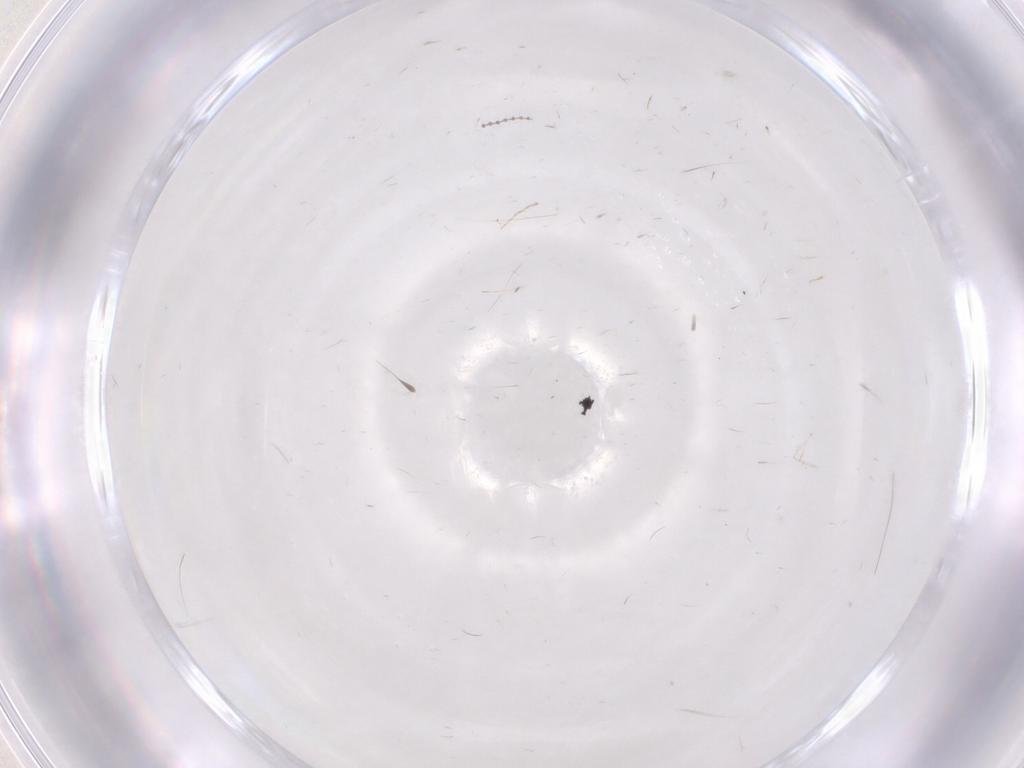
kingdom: Animalia
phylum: Arthropoda
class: Insecta
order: Diptera
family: Cecidomyiidae
